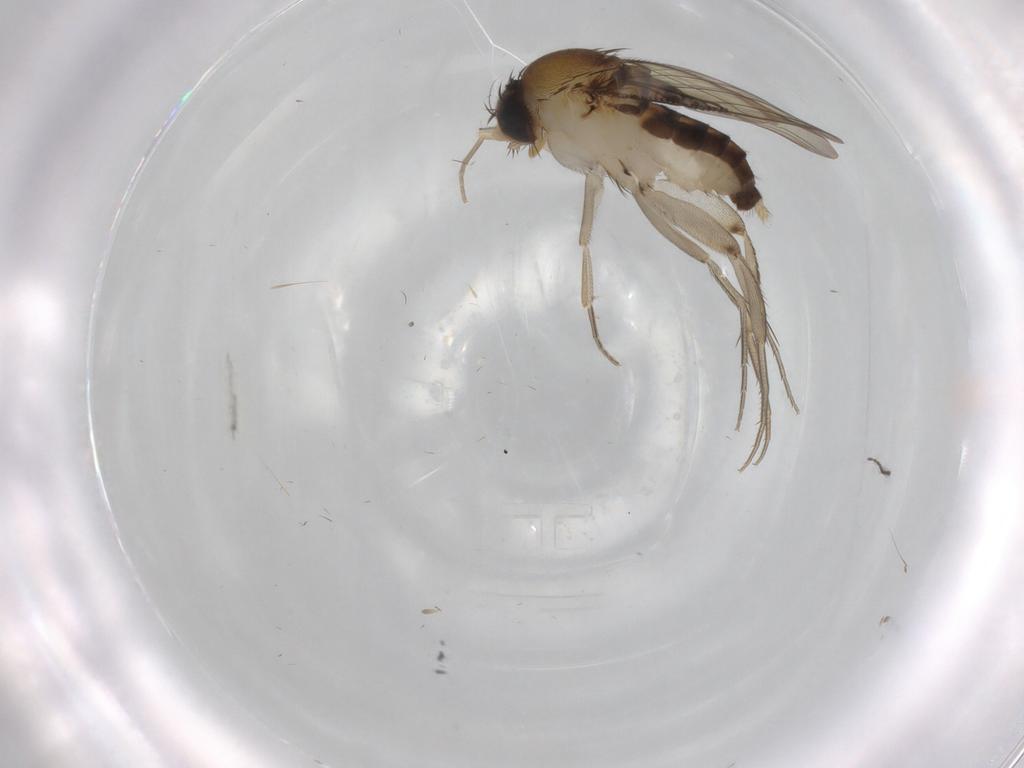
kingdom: Animalia
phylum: Arthropoda
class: Insecta
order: Diptera
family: Phoridae
